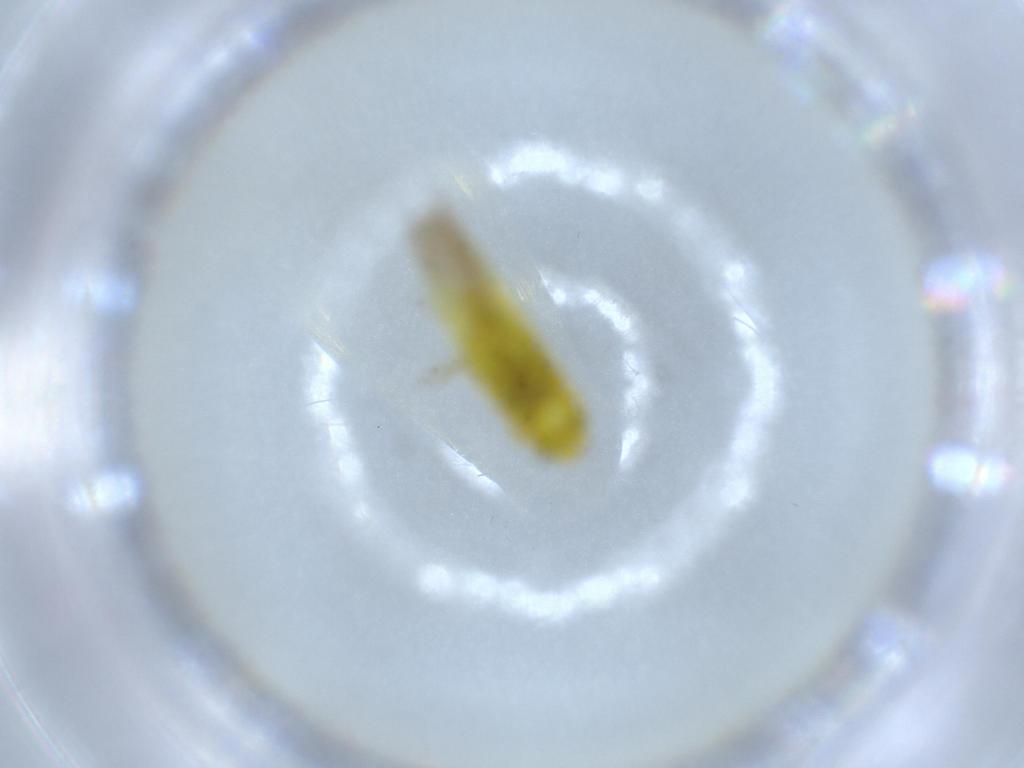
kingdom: Animalia
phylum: Arthropoda
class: Insecta
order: Hemiptera
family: Cicadellidae
